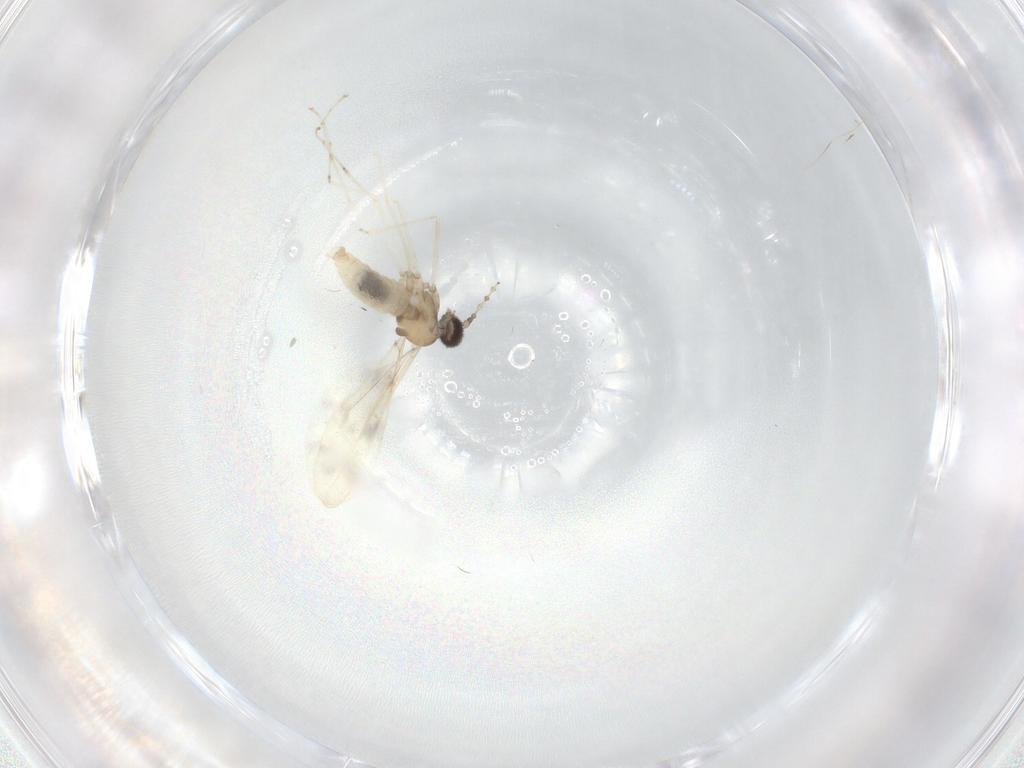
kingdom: Animalia
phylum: Arthropoda
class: Insecta
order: Diptera
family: Cecidomyiidae
